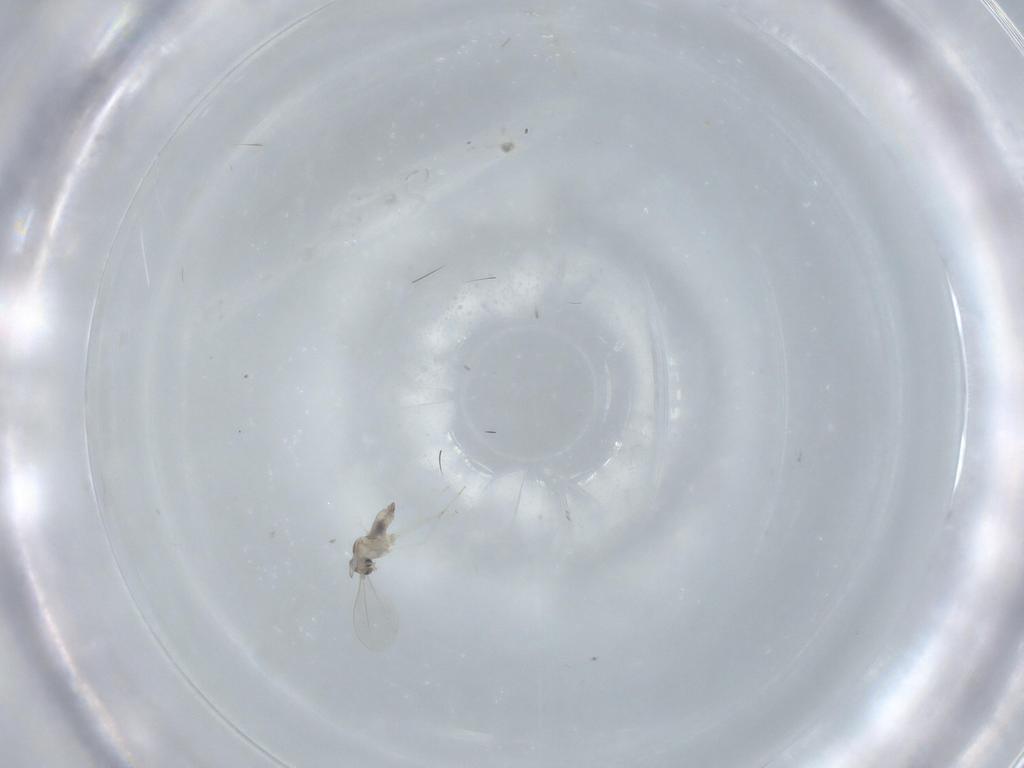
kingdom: Animalia
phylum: Arthropoda
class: Insecta
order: Diptera
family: Cecidomyiidae
